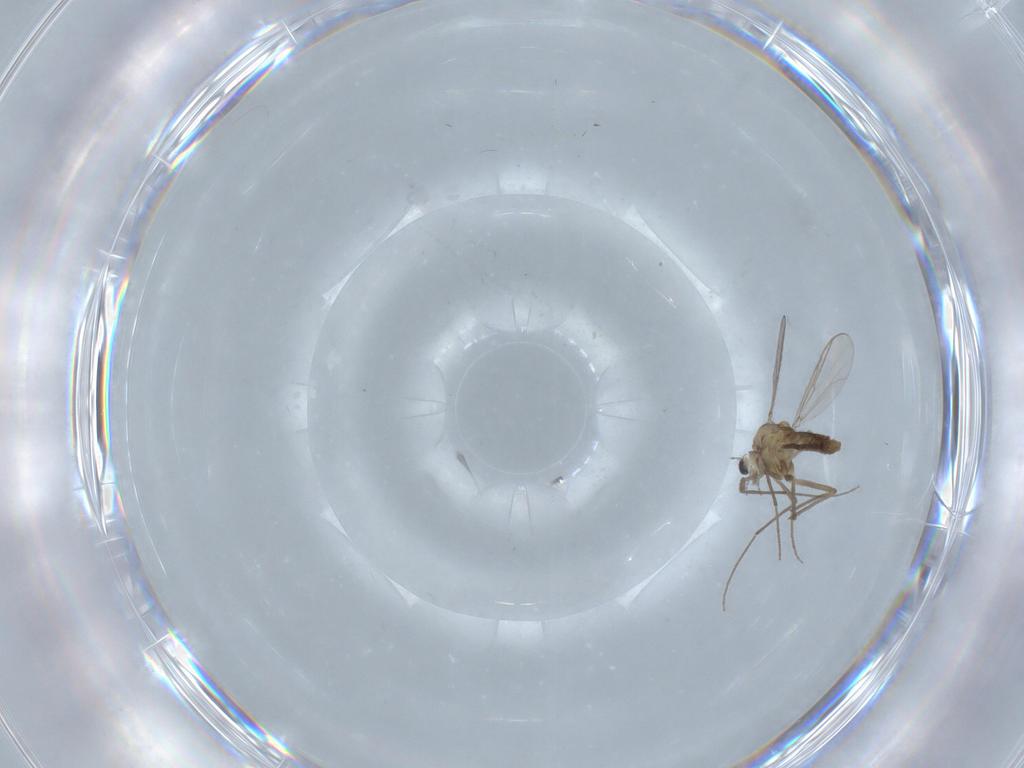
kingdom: Animalia
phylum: Arthropoda
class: Insecta
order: Diptera
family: Chironomidae
